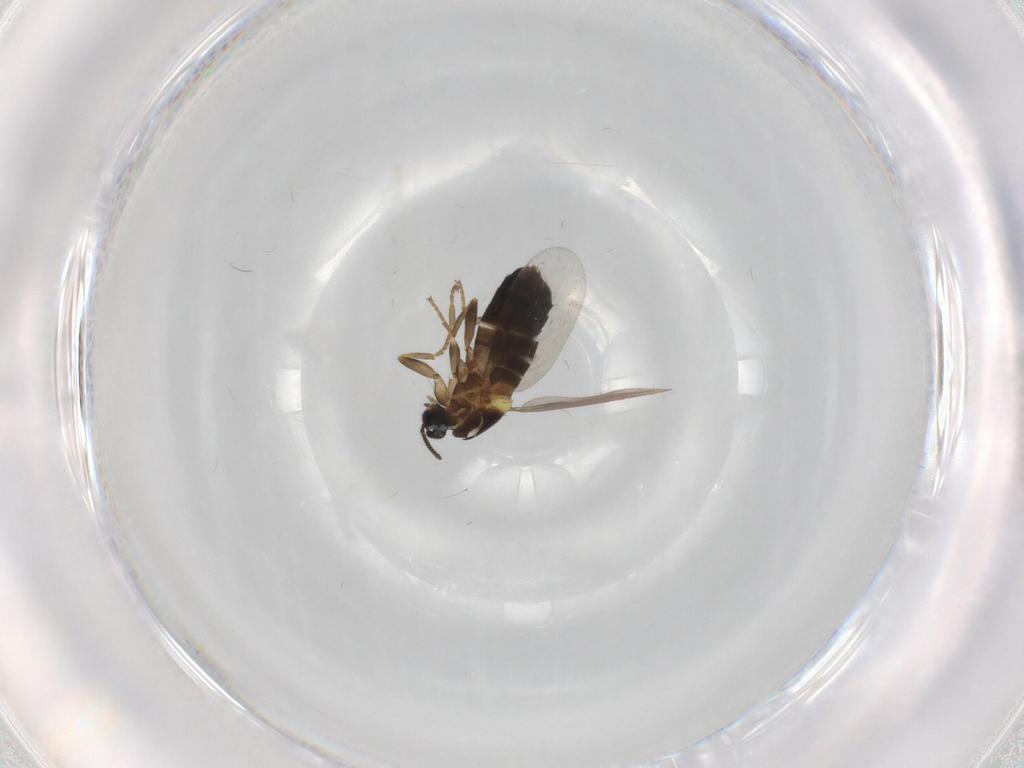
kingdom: Animalia
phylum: Arthropoda
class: Insecta
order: Diptera
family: Scatopsidae
